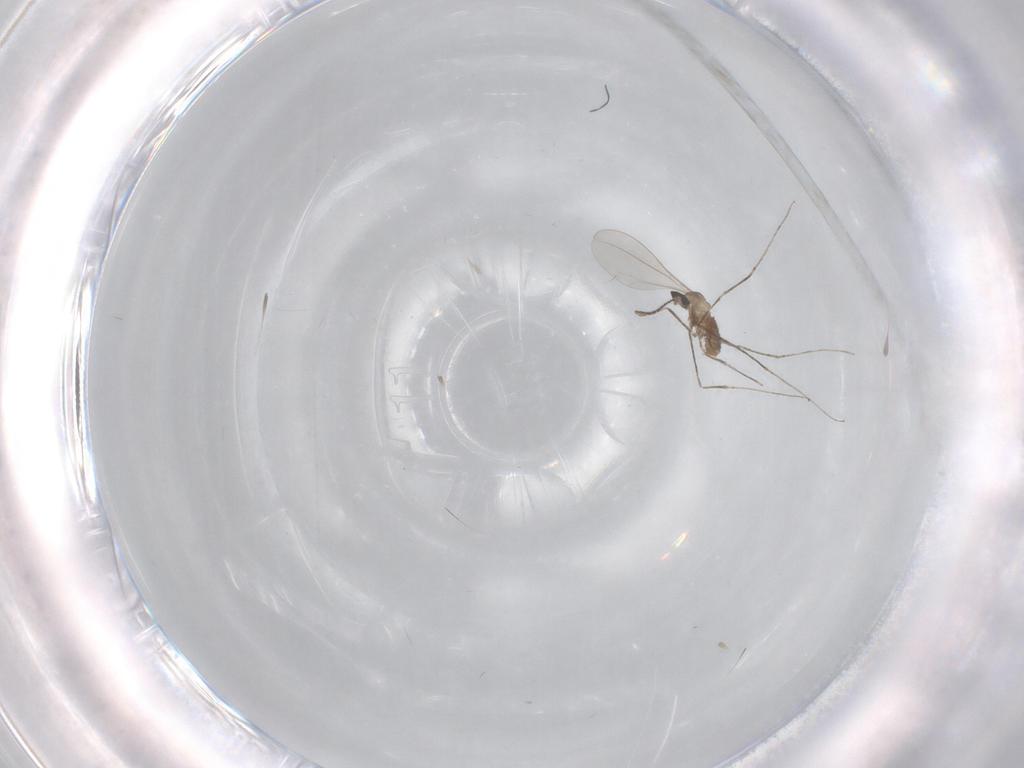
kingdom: Animalia
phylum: Arthropoda
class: Insecta
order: Diptera
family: Cecidomyiidae
